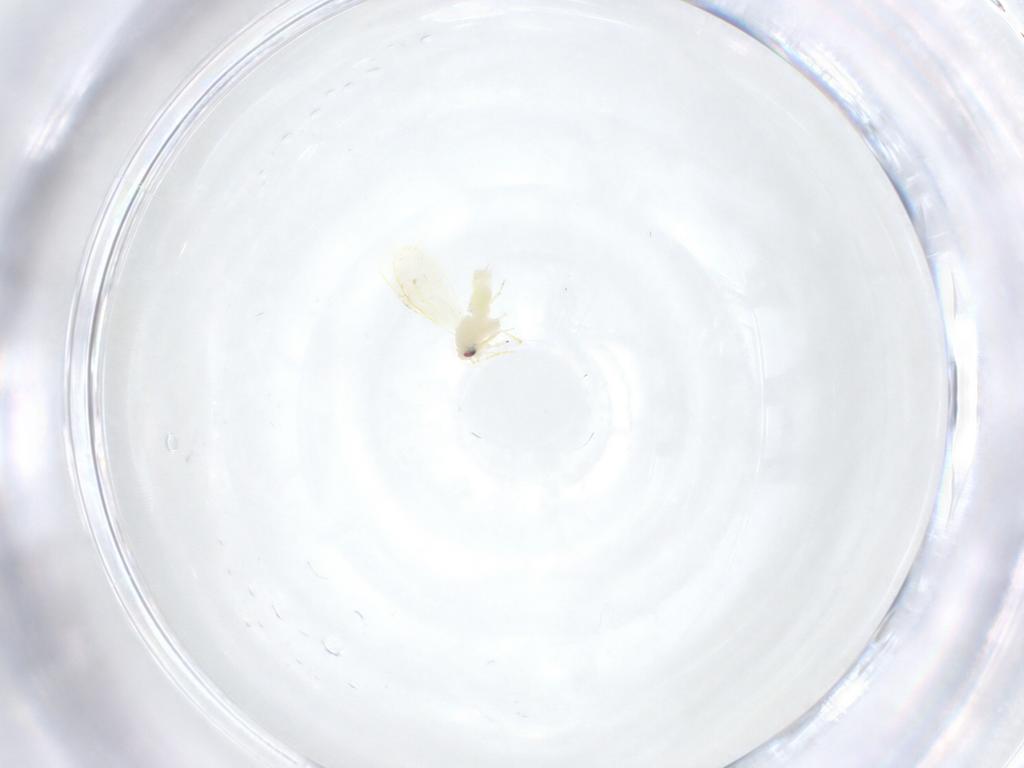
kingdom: Animalia
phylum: Arthropoda
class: Insecta
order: Hemiptera
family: Aleyrodidae
